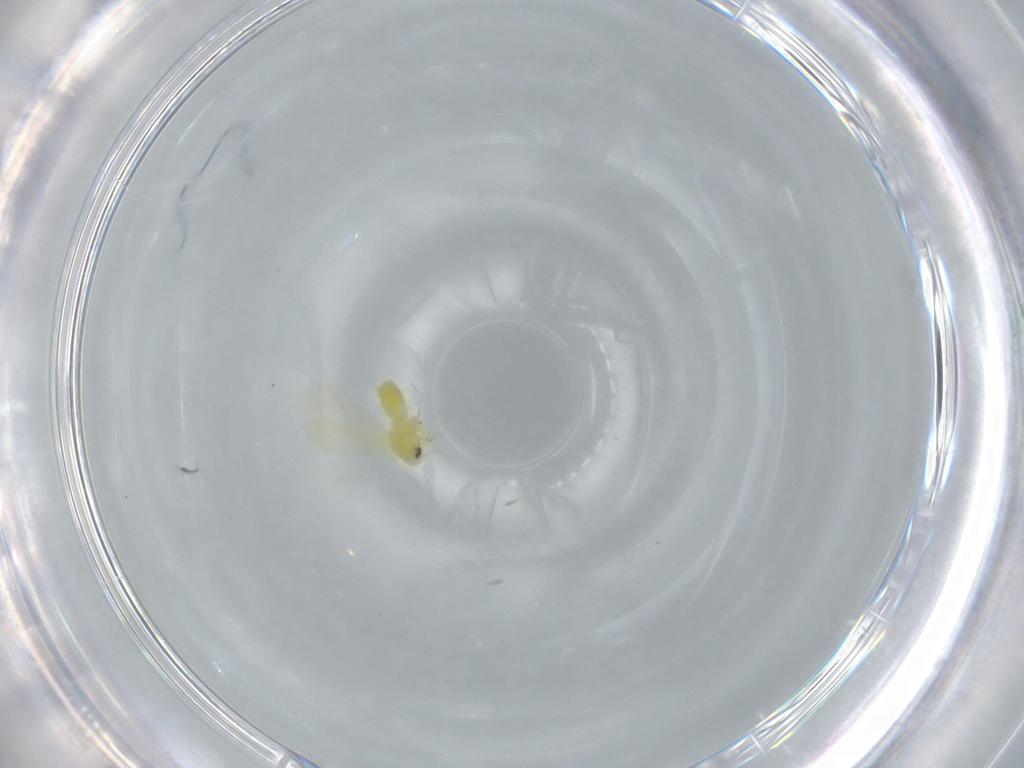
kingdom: Animalia
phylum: Arthropoda
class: Insecta
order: Hemiptera
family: Aleyrodidae
